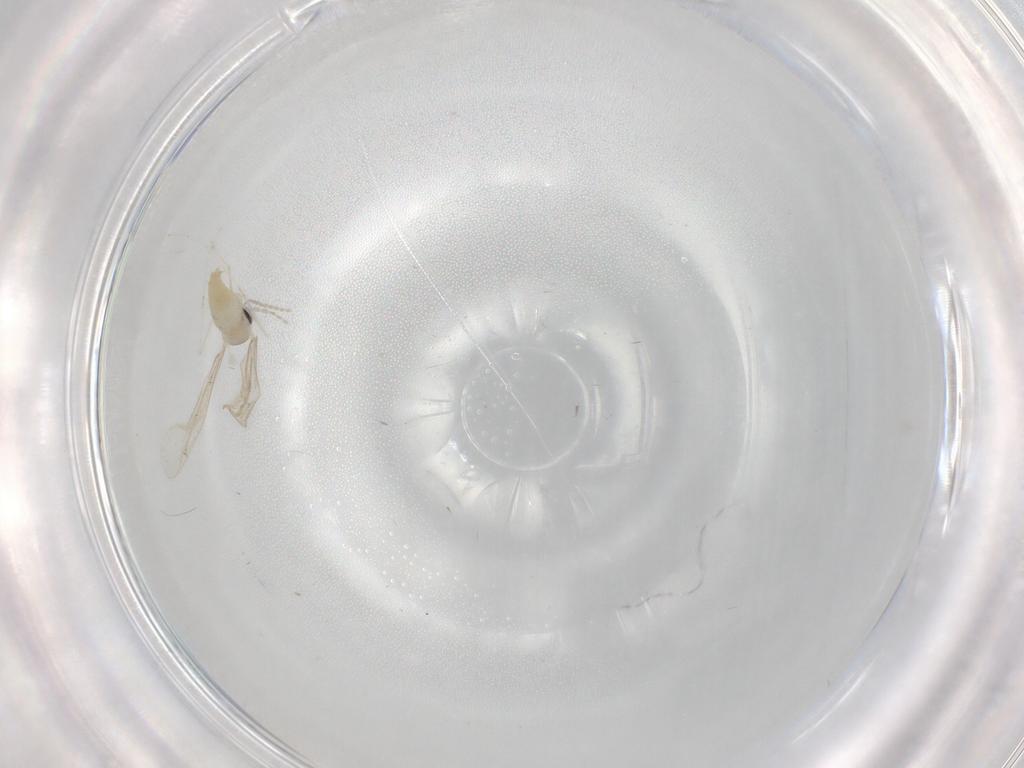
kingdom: Animalia
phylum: Arthropoda
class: Insecta
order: Diptera
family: Cecidomyiidae
